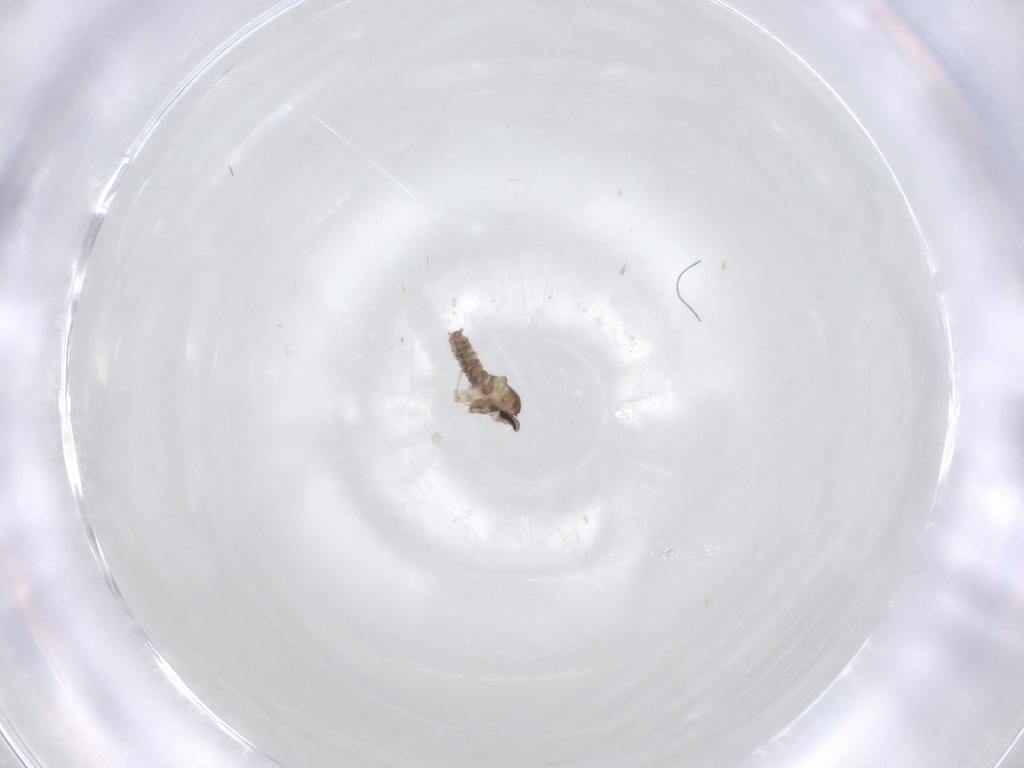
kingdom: Animalia
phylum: Arthropoda
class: Insecta
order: Diptera
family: Cecidomyiidae
